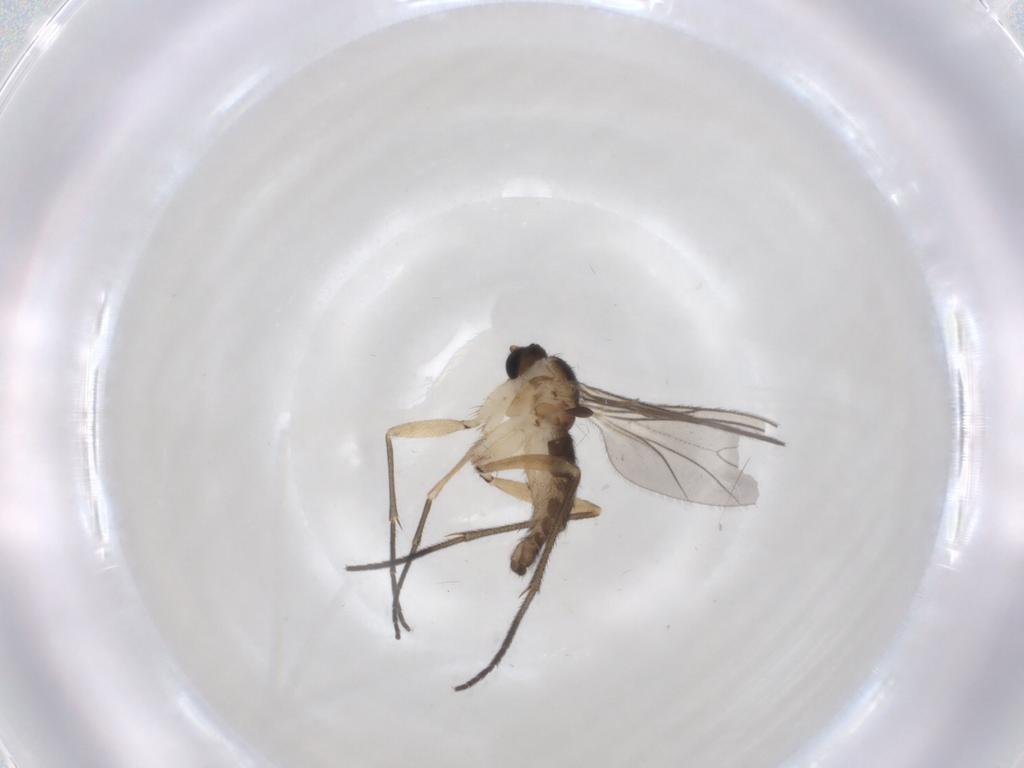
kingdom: Animalia
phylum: Arthropoda
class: Insecta
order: Diptera
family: Sciaridae
